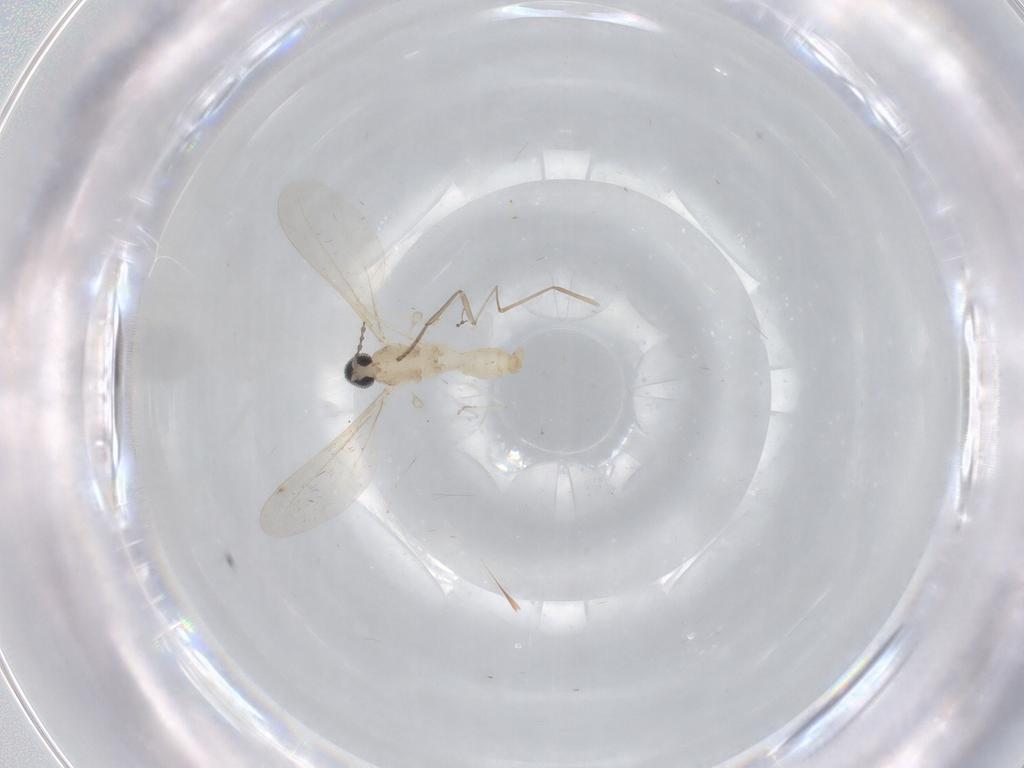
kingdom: Animalia
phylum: Arthropoda
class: Insecta
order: Diptera
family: Cecidomyiidae
